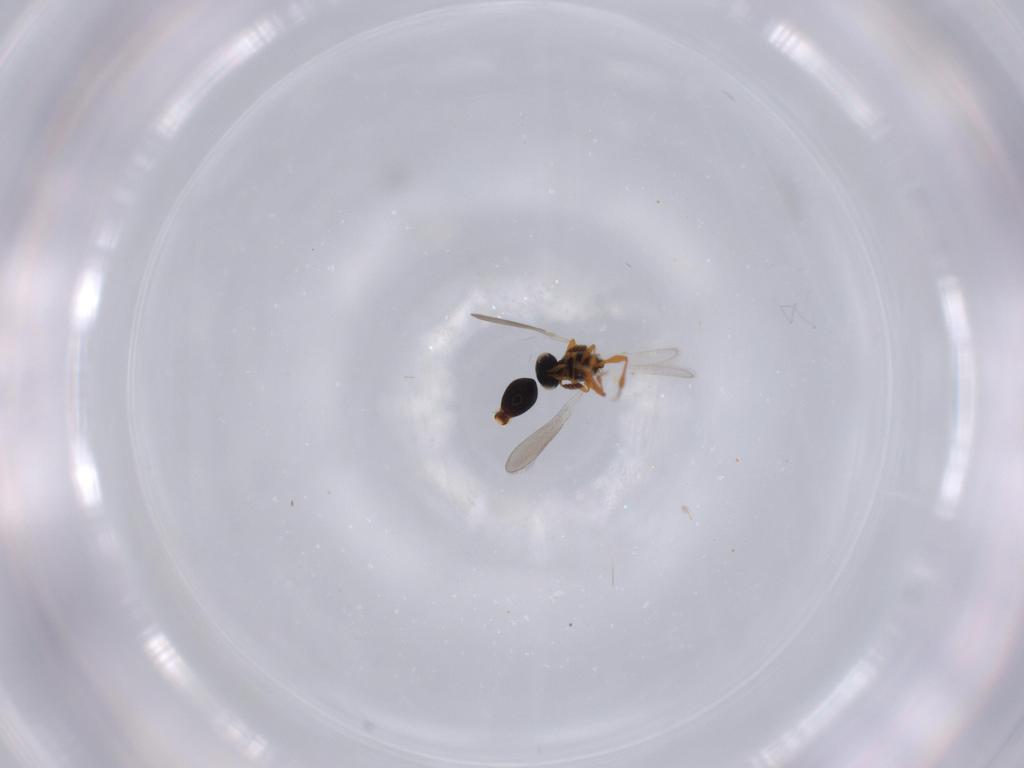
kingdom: Animalia
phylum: Arthropoda
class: Insecta
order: Hymenoptera
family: Platygastridae
